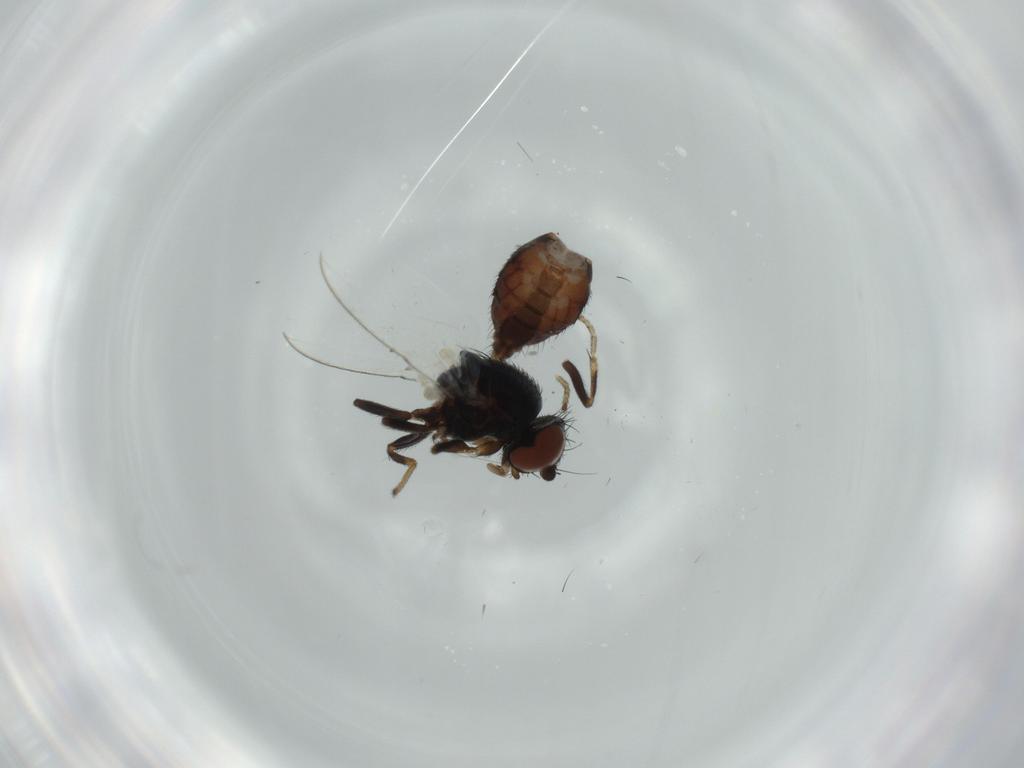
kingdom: Animalia
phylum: Arthropoda
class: Insecta
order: Diptera
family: Milichiidae
